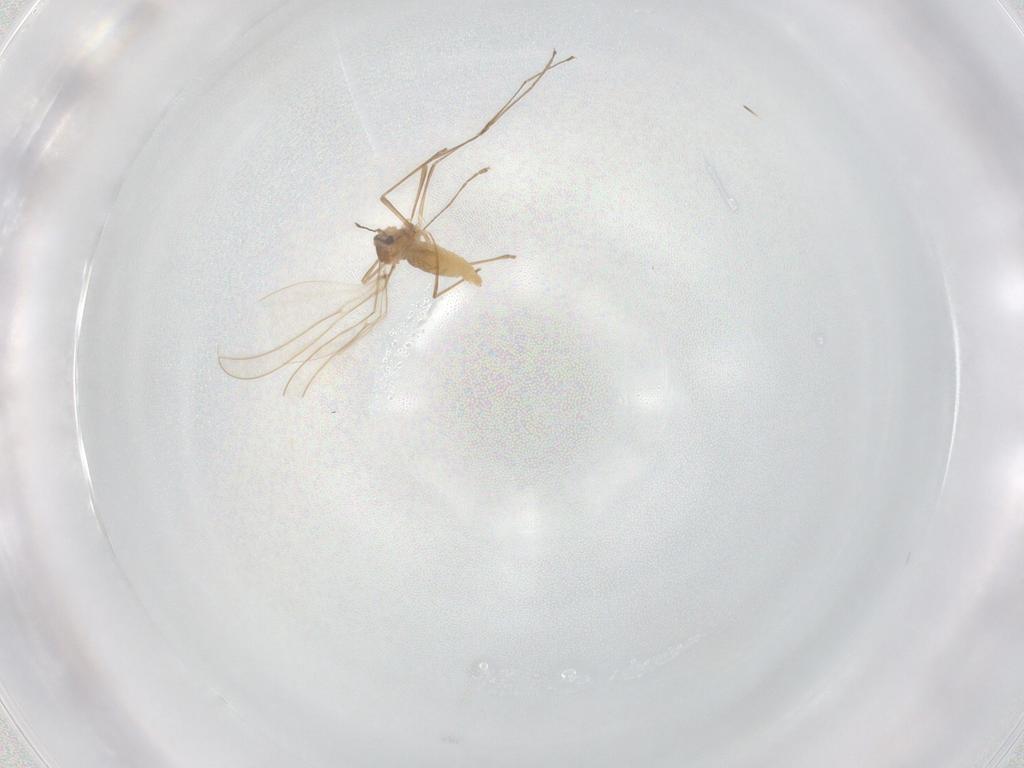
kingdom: Animalia
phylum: Arthropoda
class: Insecta
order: Diptera
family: Cecidomyiidae
